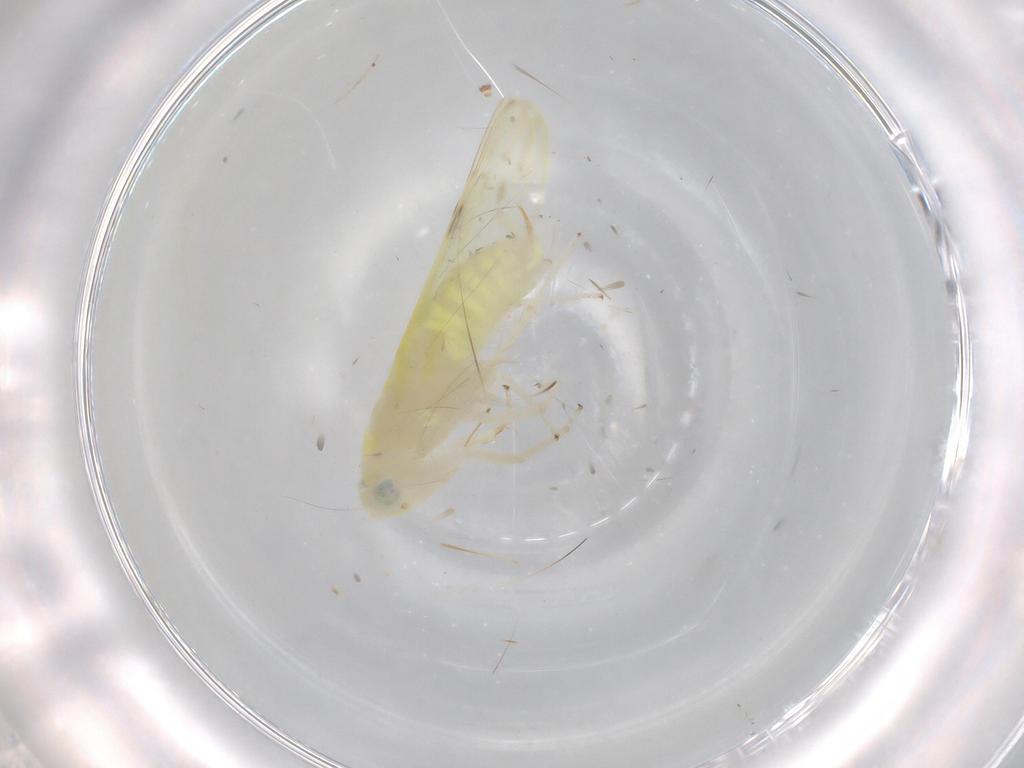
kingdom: Animalia
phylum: Arthropoda
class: Insecta
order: Hemiptera
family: Cicadellidae
